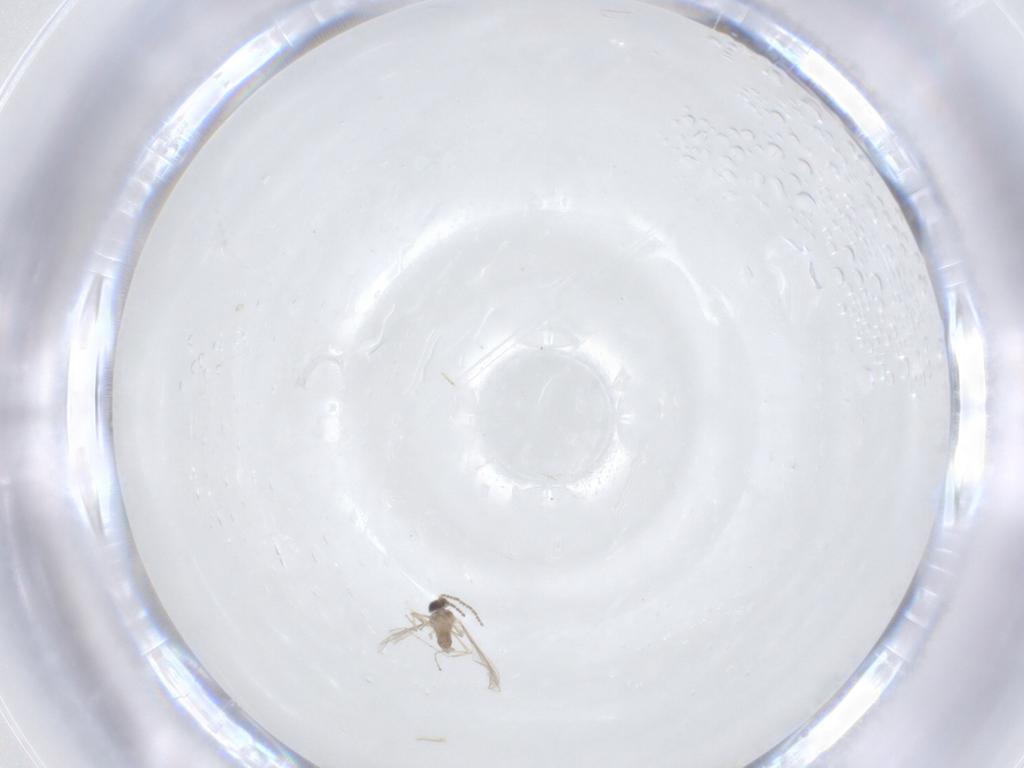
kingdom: Animalia
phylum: Arthropoda
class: Insecta
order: Diptera
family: Cecidomyiidae
